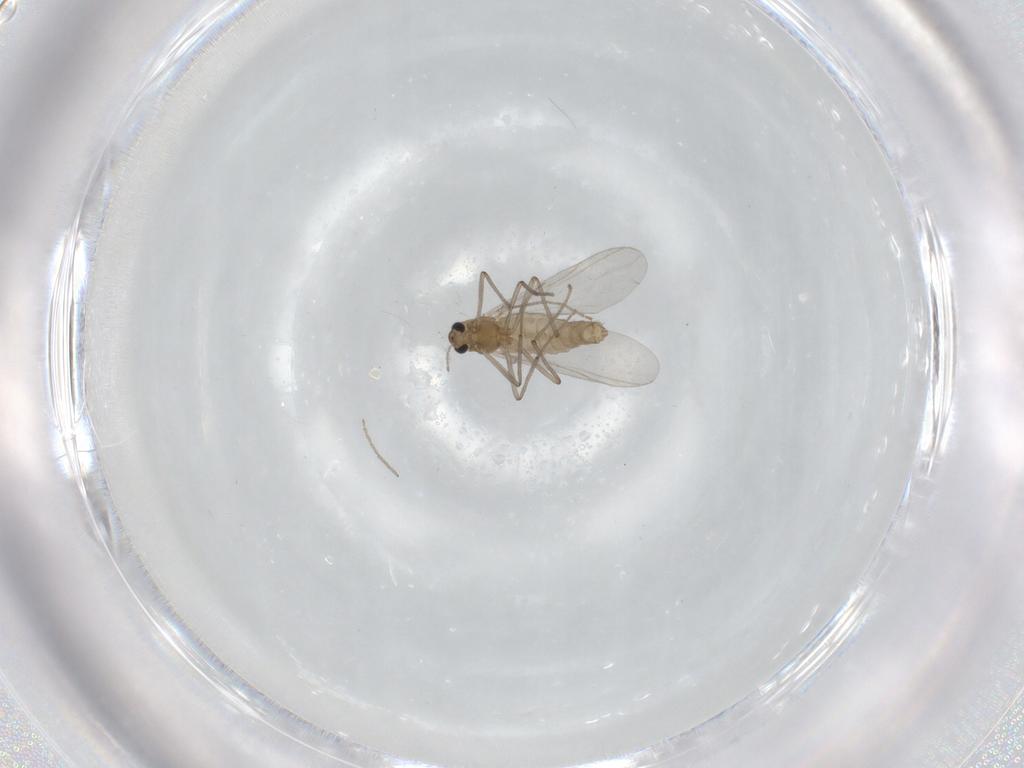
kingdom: Animalia
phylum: Arthropoda
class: Insecta
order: Diptera
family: Chironomidae
